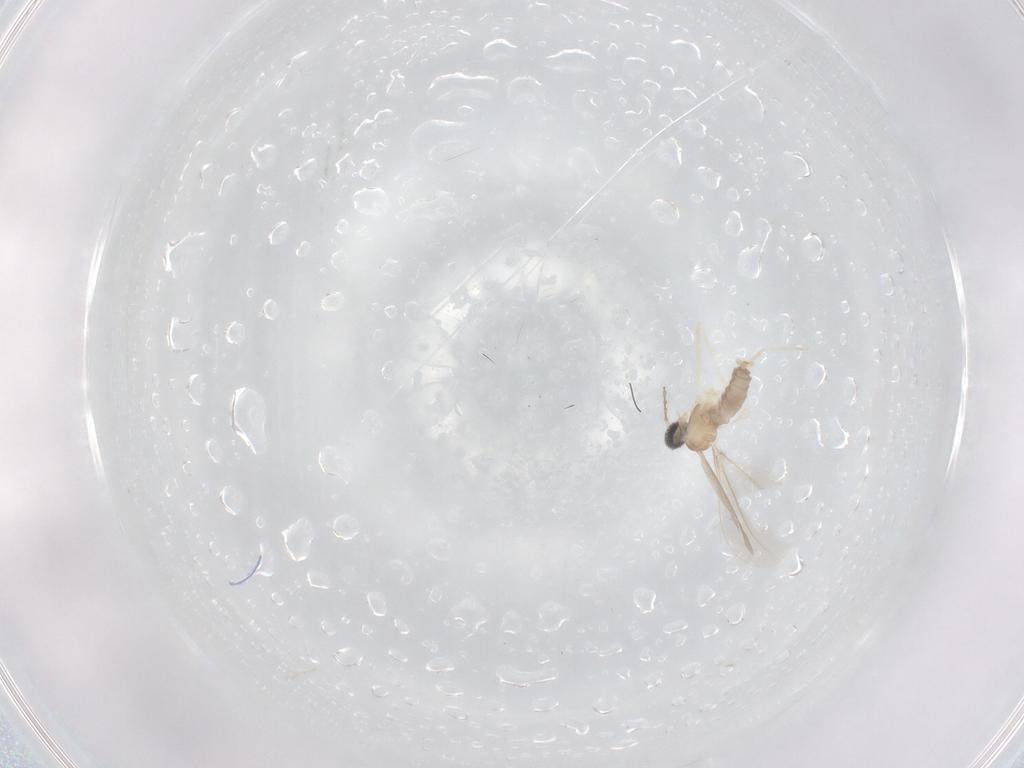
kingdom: Animalia
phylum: Arthropoda
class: Insecta
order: Diptera
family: Cecidomyiidae
